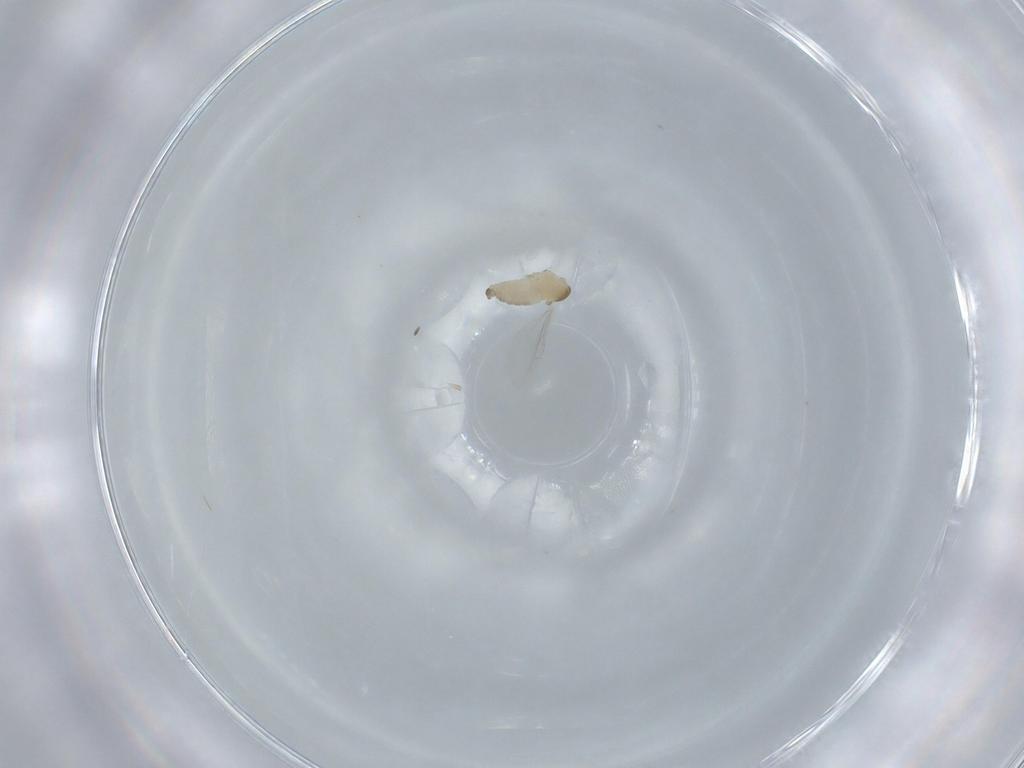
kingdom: Animalia
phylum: Arthropoda
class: Insecta
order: Diptera
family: Cecidomyiidae
